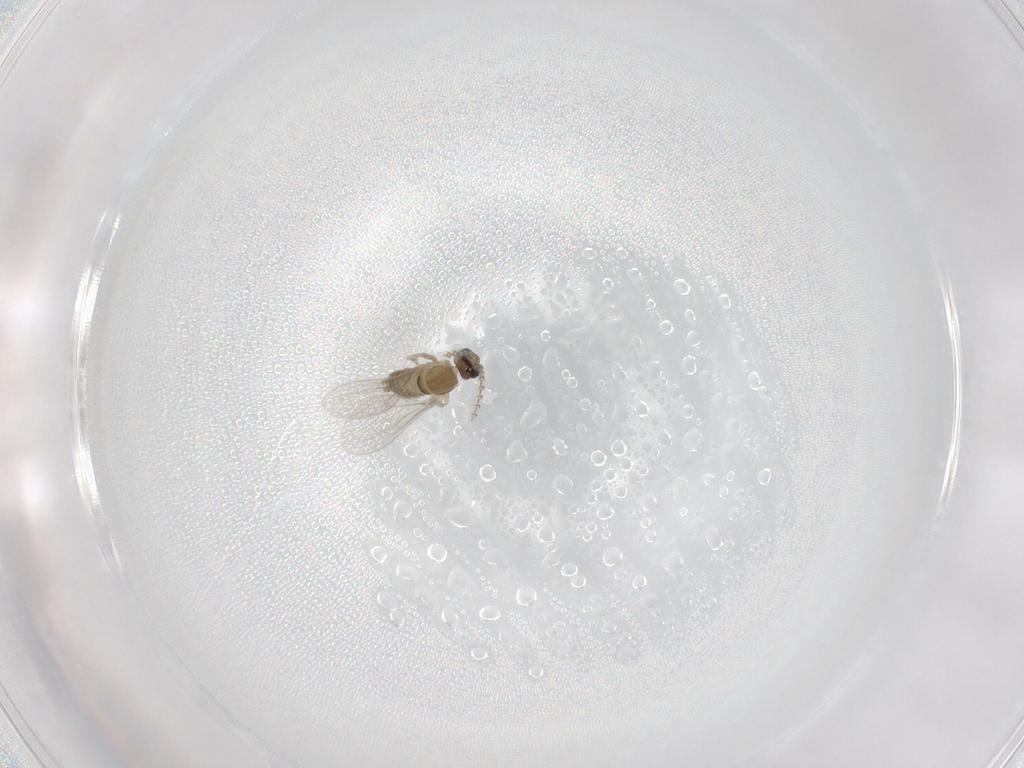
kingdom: Animalia
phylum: Arthropoda
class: Insecta
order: Diptera
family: Cecidomyiidae
